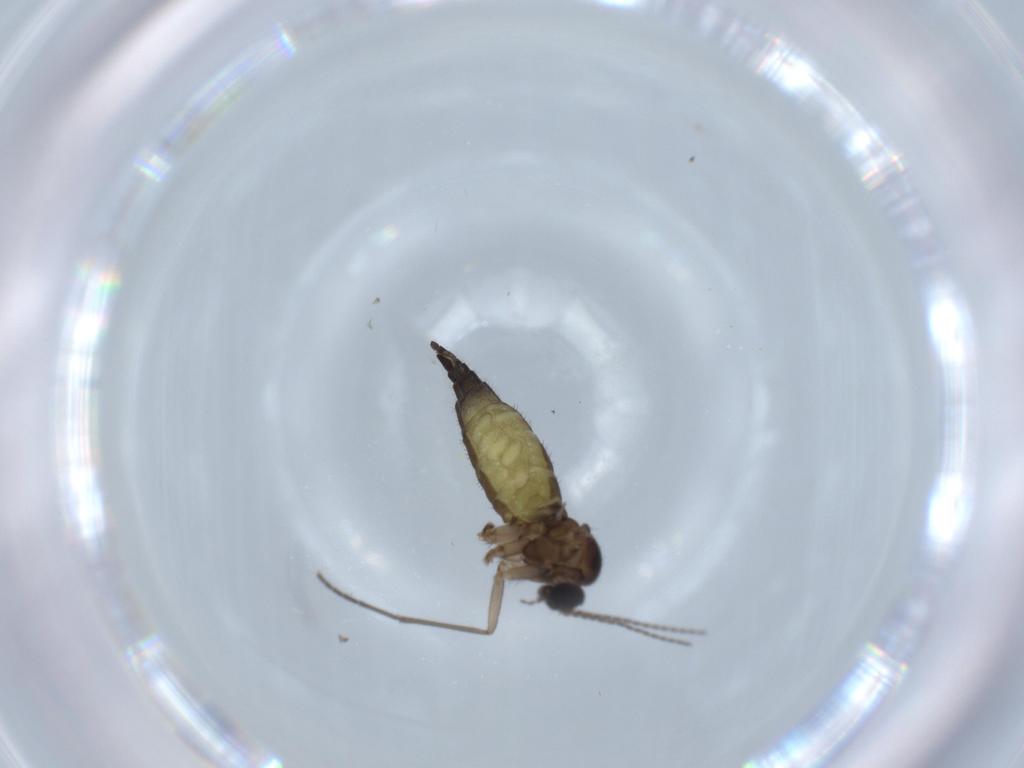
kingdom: Animalia
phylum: Arthropoda
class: Insecta
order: Diptera
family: Sciaridae
